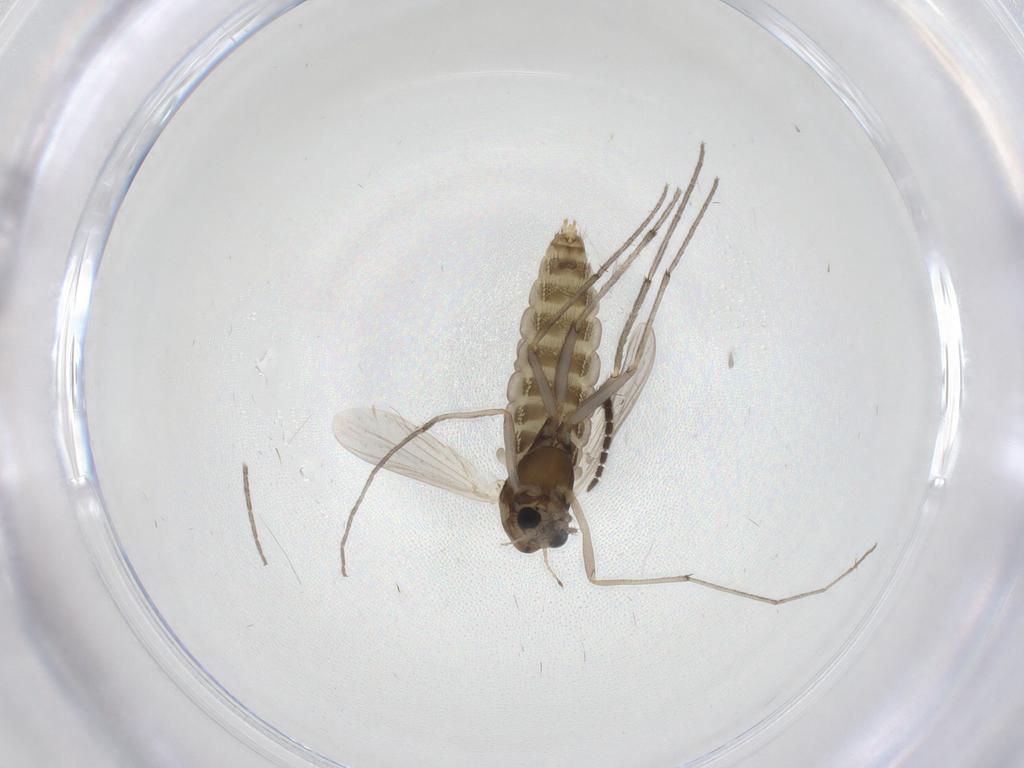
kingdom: Animalia
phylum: Arthropoda
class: Insecta
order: Diptera
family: Chironomidae
